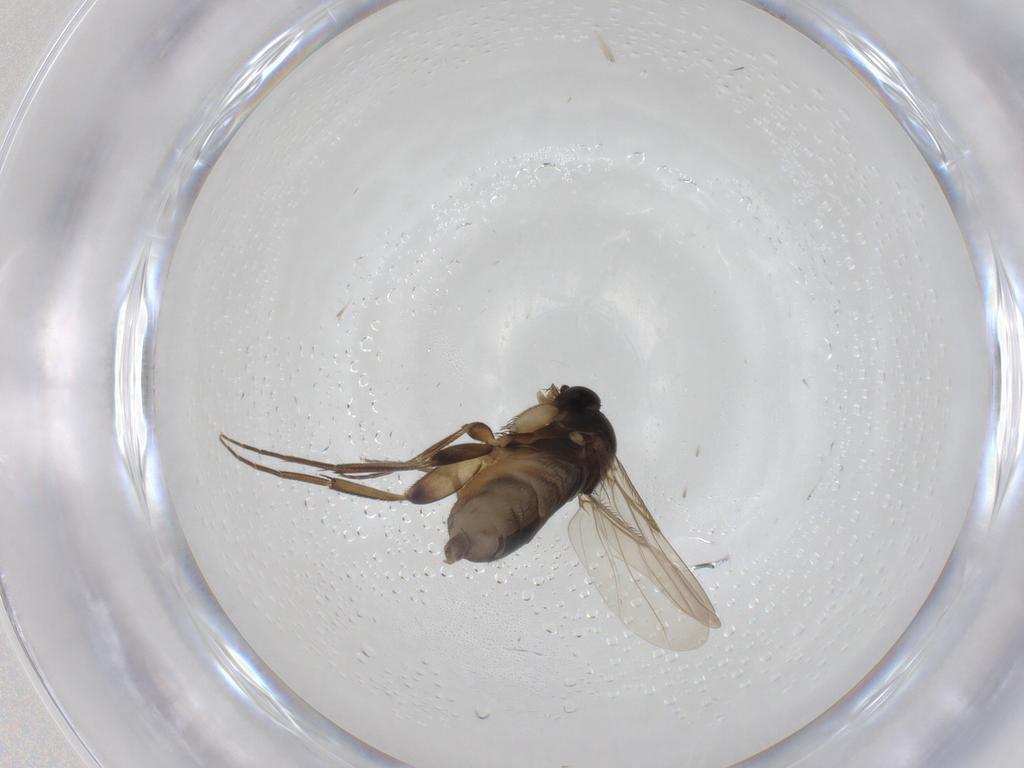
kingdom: Animalia
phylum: Arthropoda
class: Insecta
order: Diptera
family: Phoridae
